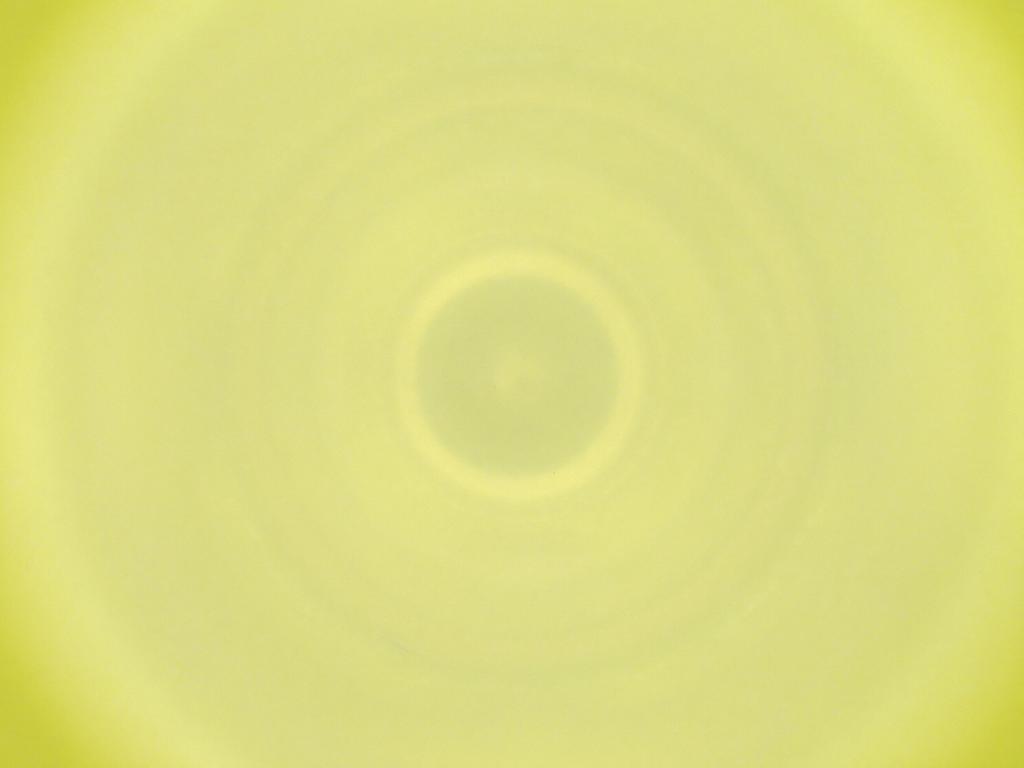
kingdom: Animalia
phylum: Arthropoda
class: Insecta
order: Diptera
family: Cecidomyiidae
